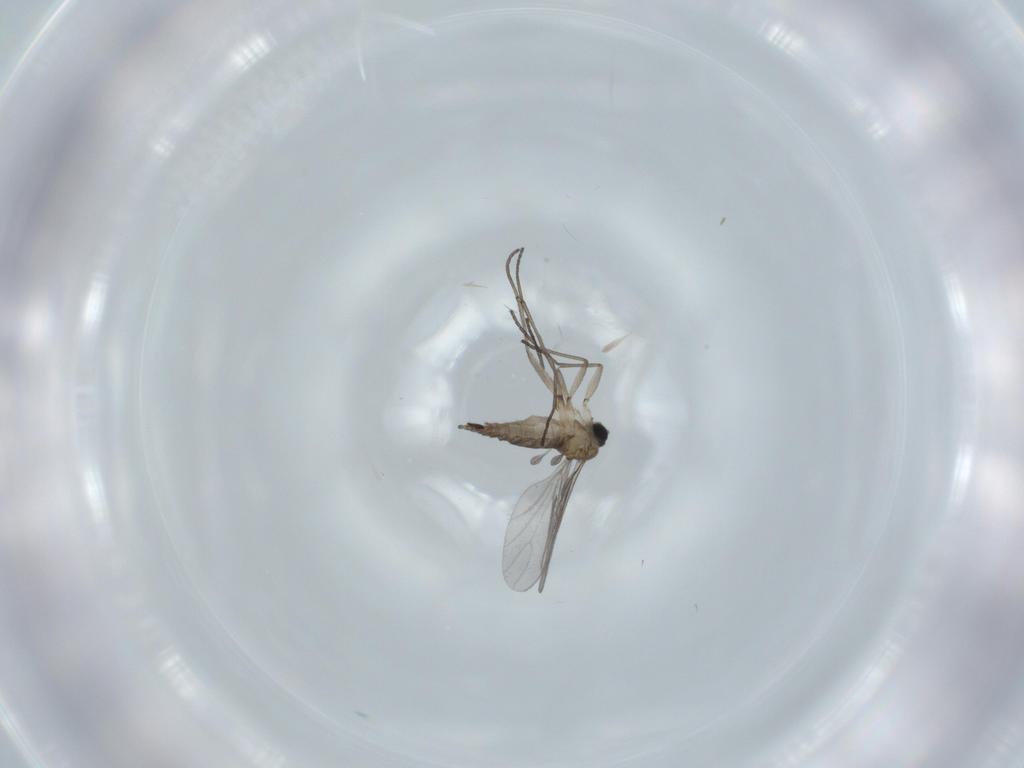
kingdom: Animalia
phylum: Arthropoda
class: Insecta
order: Diptera
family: Sciaridae
